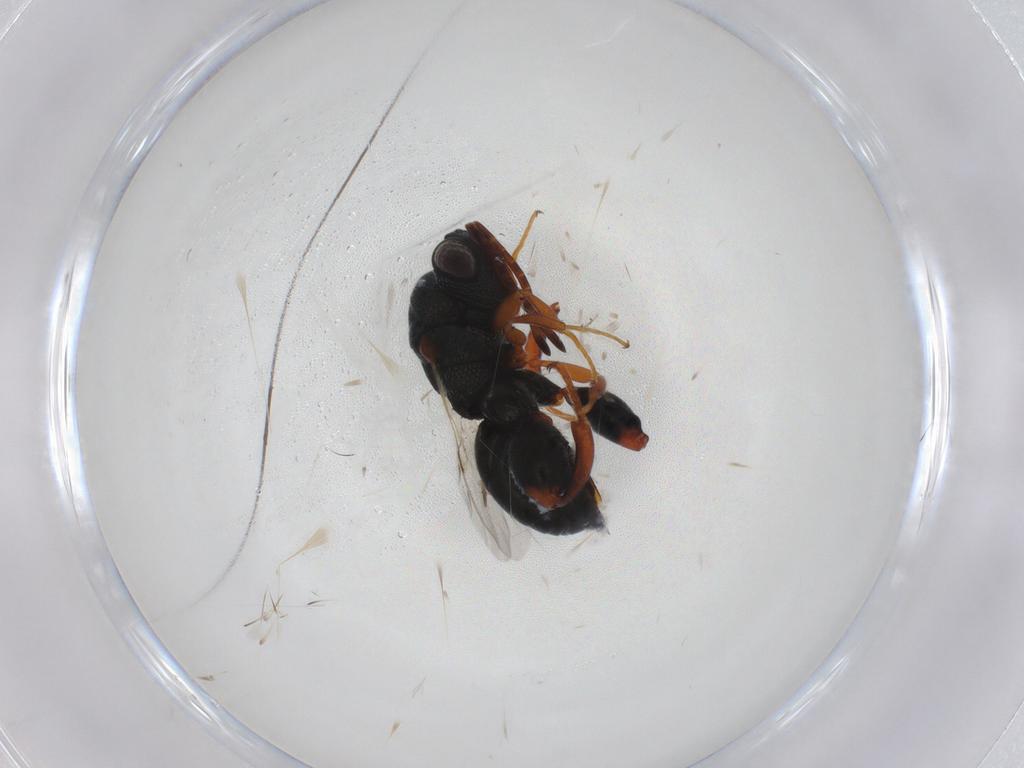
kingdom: Animalia
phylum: Arthropoda
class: Insecta
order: Hymenoptera
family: Chalcididae
